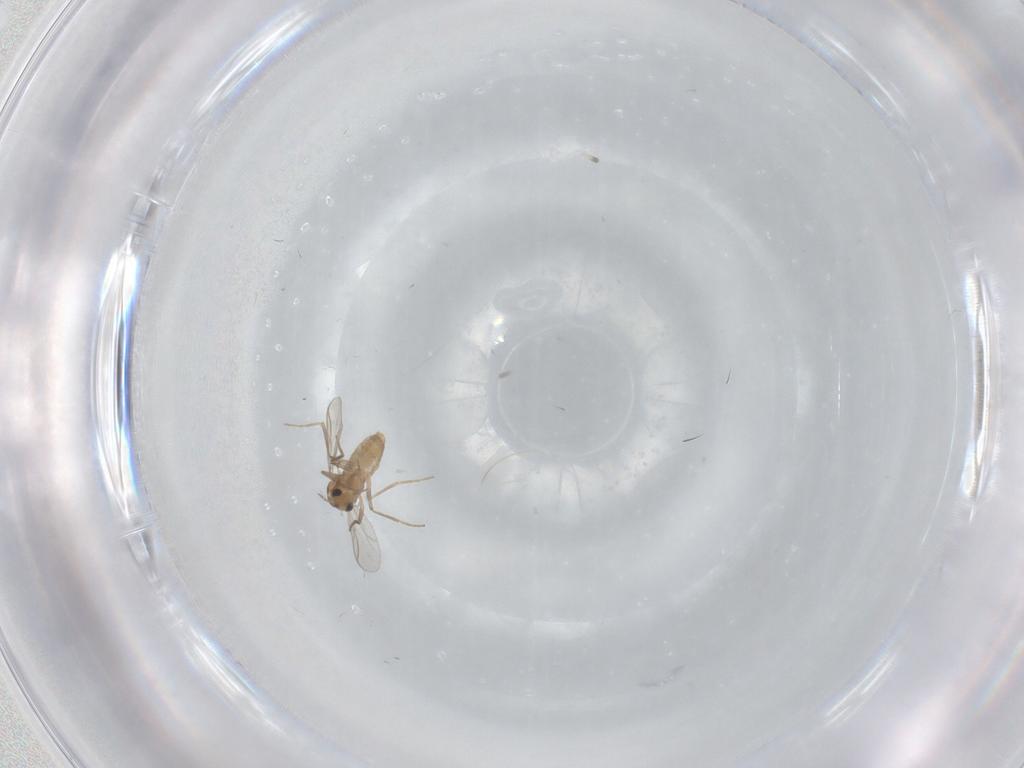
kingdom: Animalia
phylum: Arthropoda
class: Insecta
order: Diptera
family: Chironomidae
